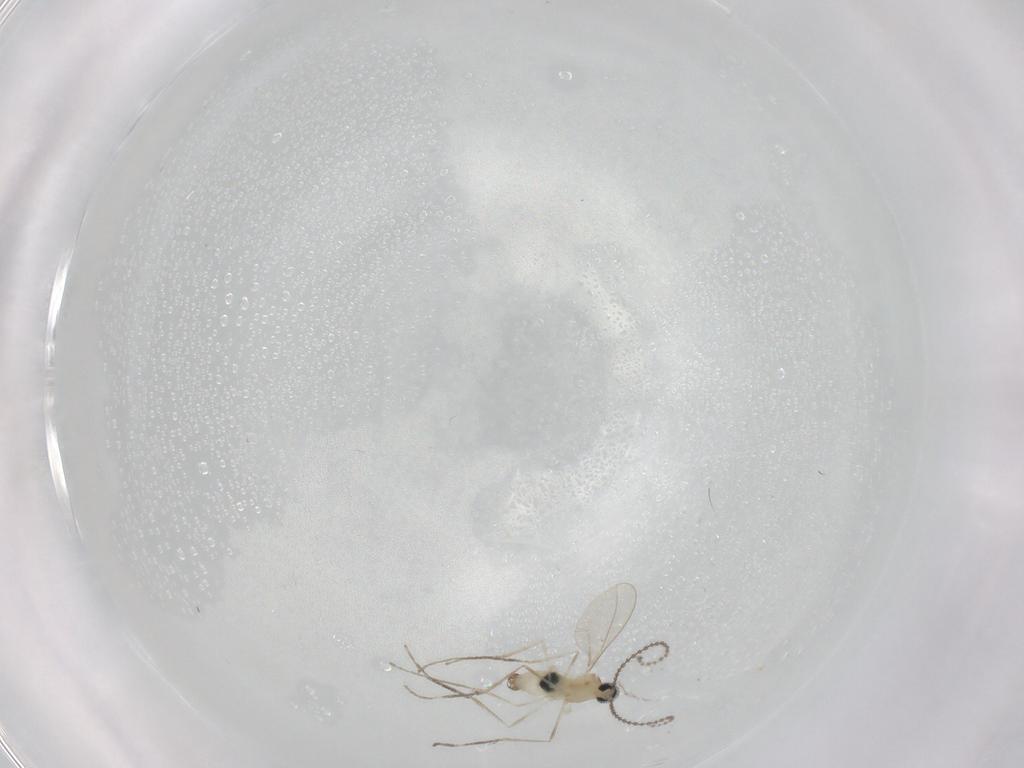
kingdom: Animalia
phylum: Arthropoda
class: Insecta
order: Diptera
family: Cecidomyiidae
